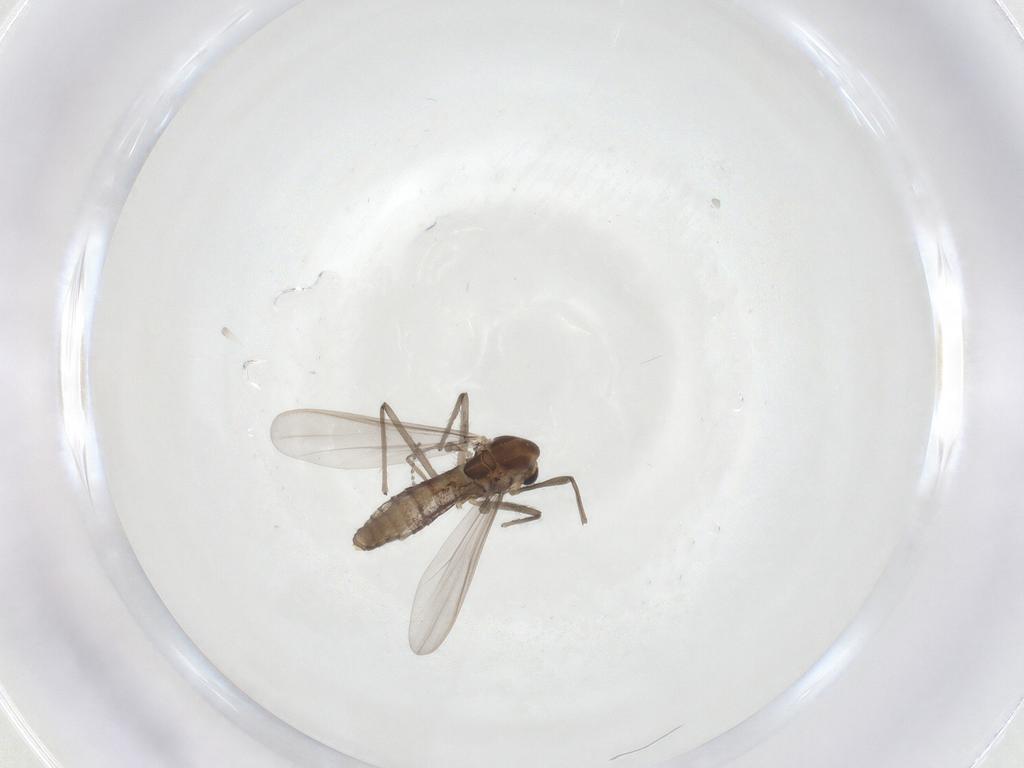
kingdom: Animalia
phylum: Arthropoda
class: Insecta
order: Diptera
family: Chironomidae
